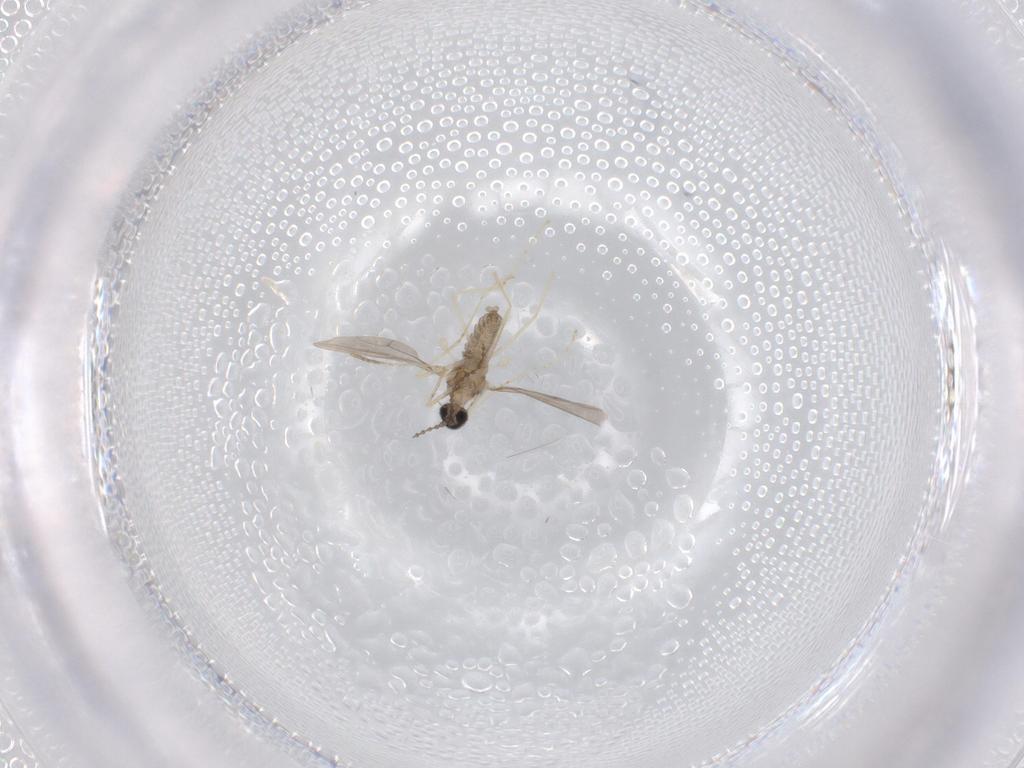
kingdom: Animalia
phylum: Arthropoda
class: Insecta
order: Diptera
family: Cecidomyiidae
